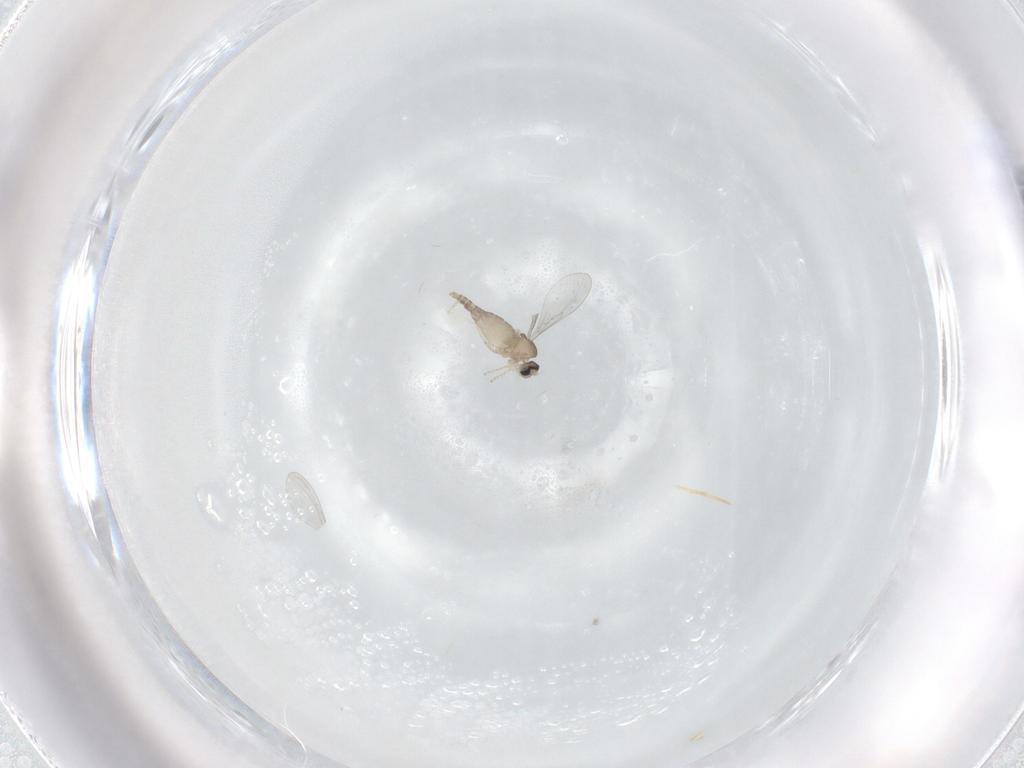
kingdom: Animalia
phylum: Arthropoda
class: Insecta
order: Diptera
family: Cecidomyiidae
